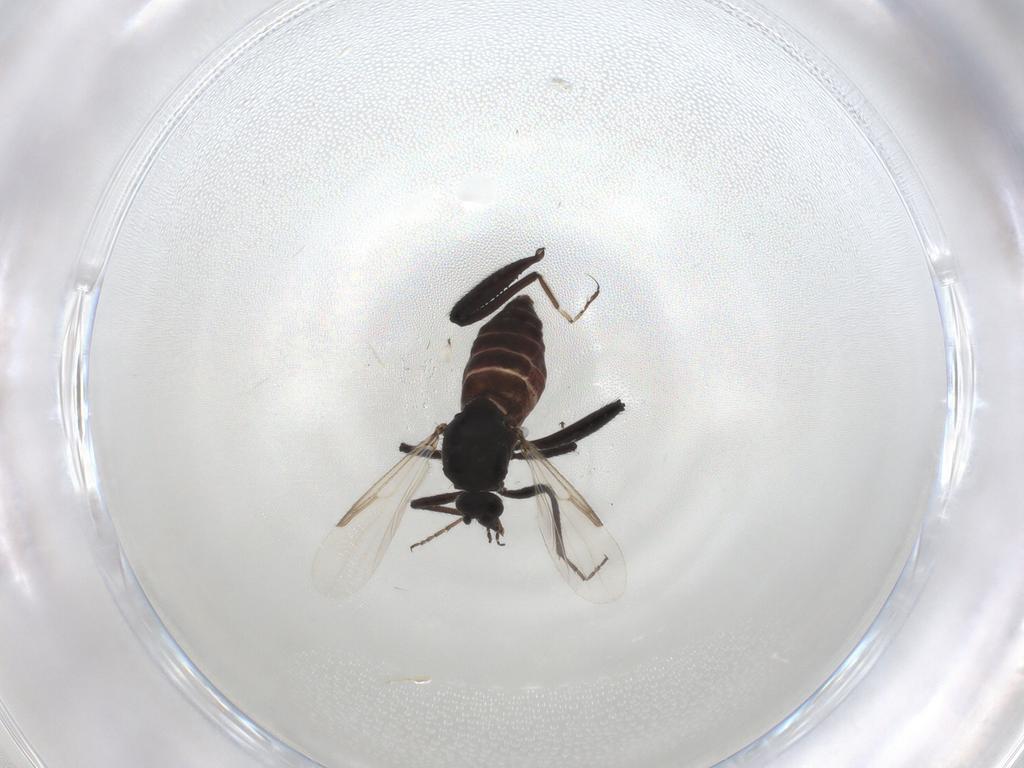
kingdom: Animalia
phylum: Arthropoda
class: Insecta
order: Diptera
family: Ceratopogonidae
